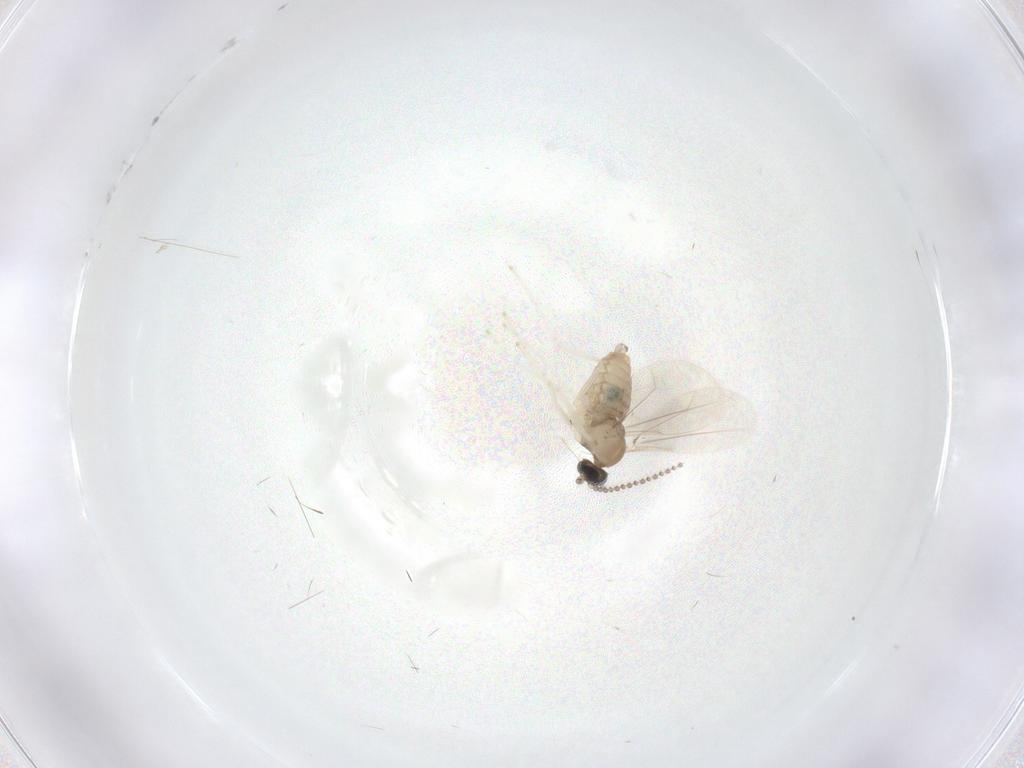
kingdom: Animalia
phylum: Arthropoda
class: Insecta
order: Diptera
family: Cecidomyiidae
